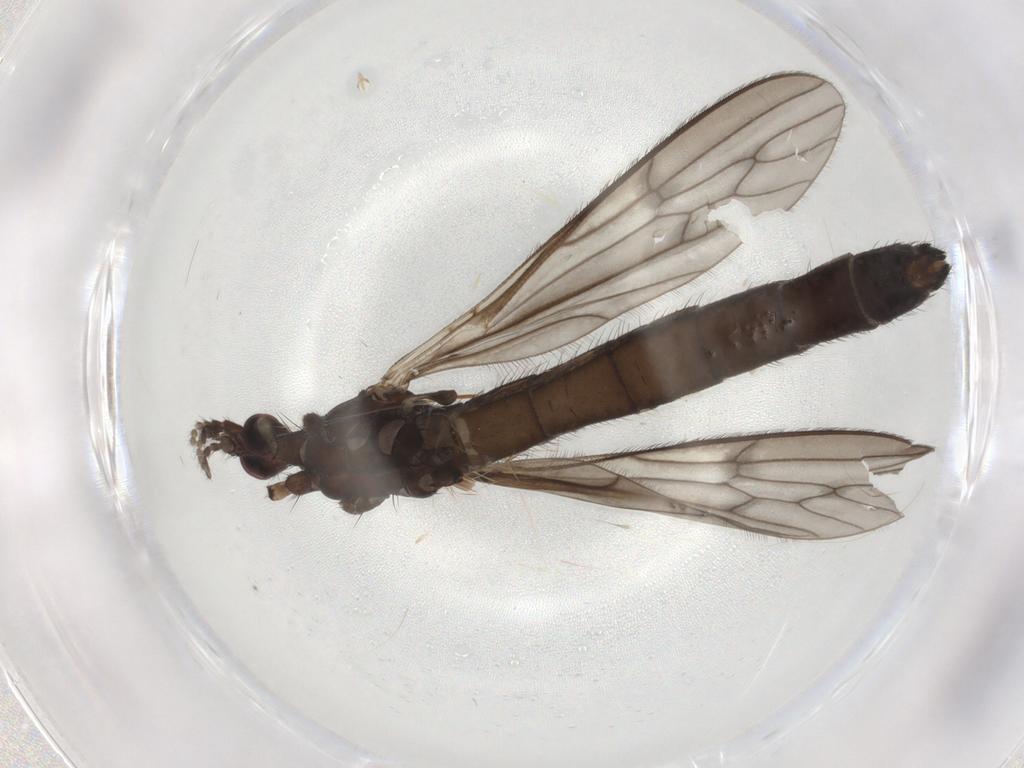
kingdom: Animalia
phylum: Arthropoda
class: Insecta
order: Diptera
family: Limoniidae
